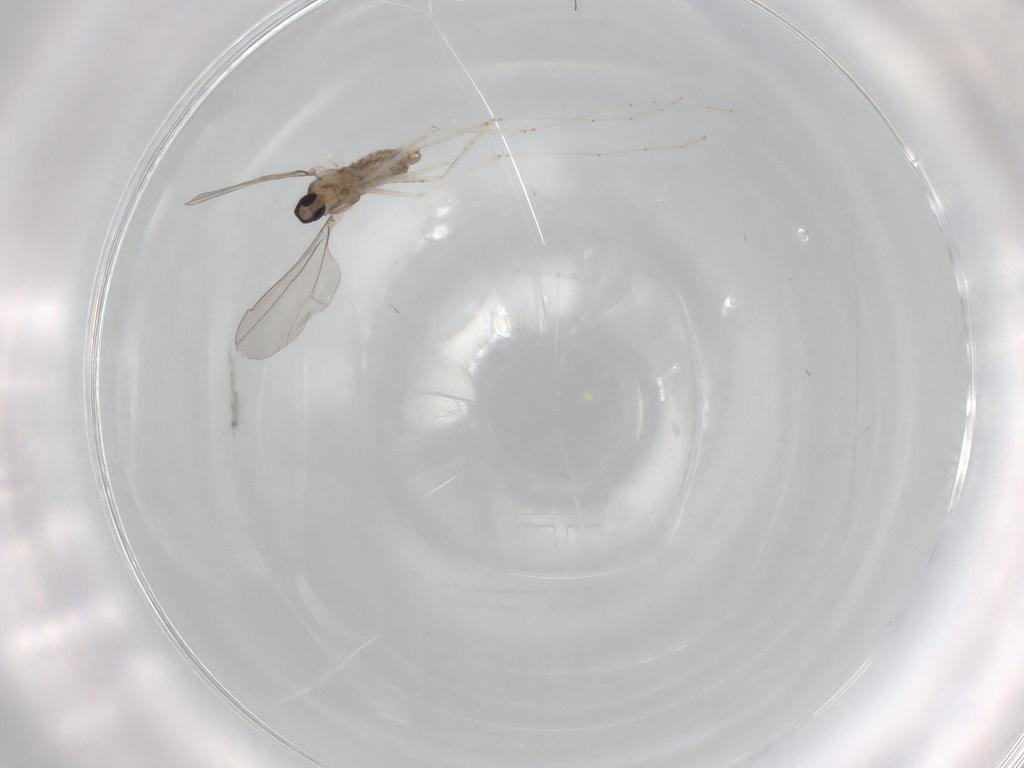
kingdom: Animalia
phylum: Arthropoda
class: Insecta
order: Diptera
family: Cecidomyiidae
